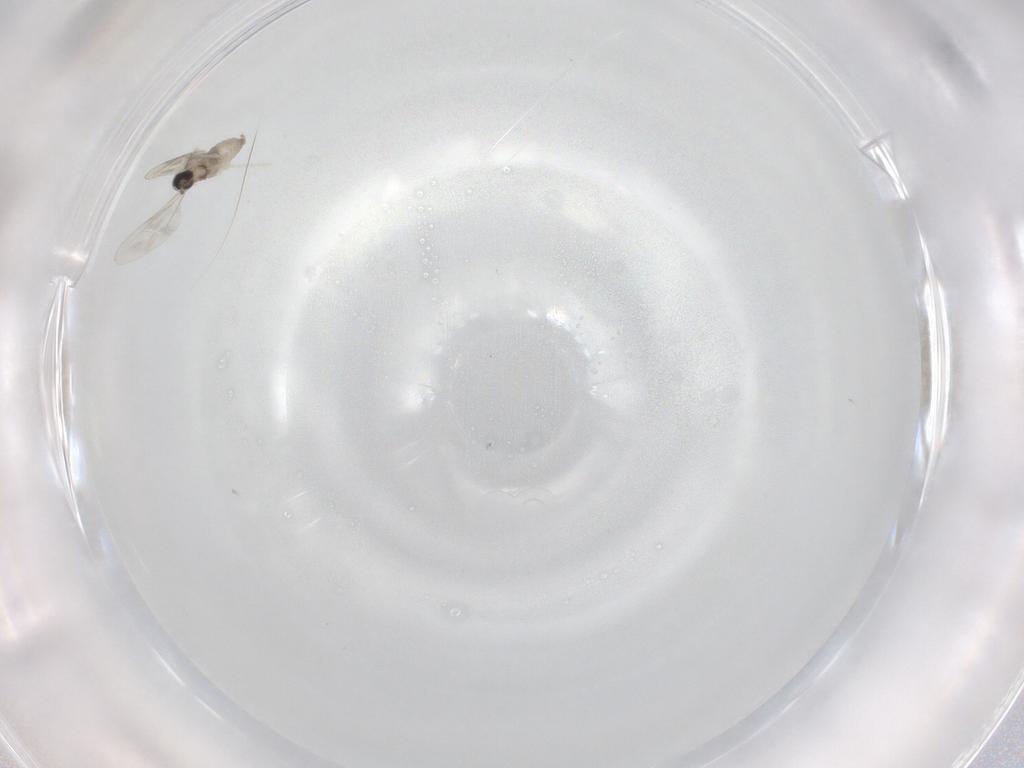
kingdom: Animalia
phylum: Arthropoda
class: Insecta
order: Diptera
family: Cecidomyiidae
